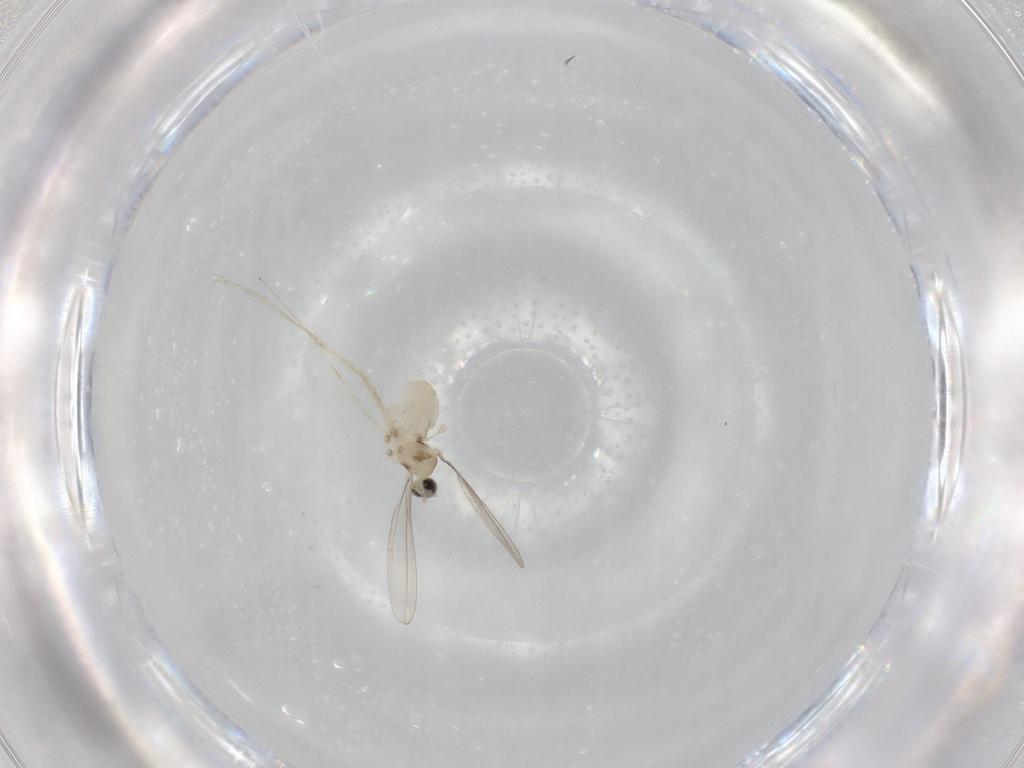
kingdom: Animalia
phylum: Arthropoda
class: Insecta
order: Diptera
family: Cecidomyiidae
